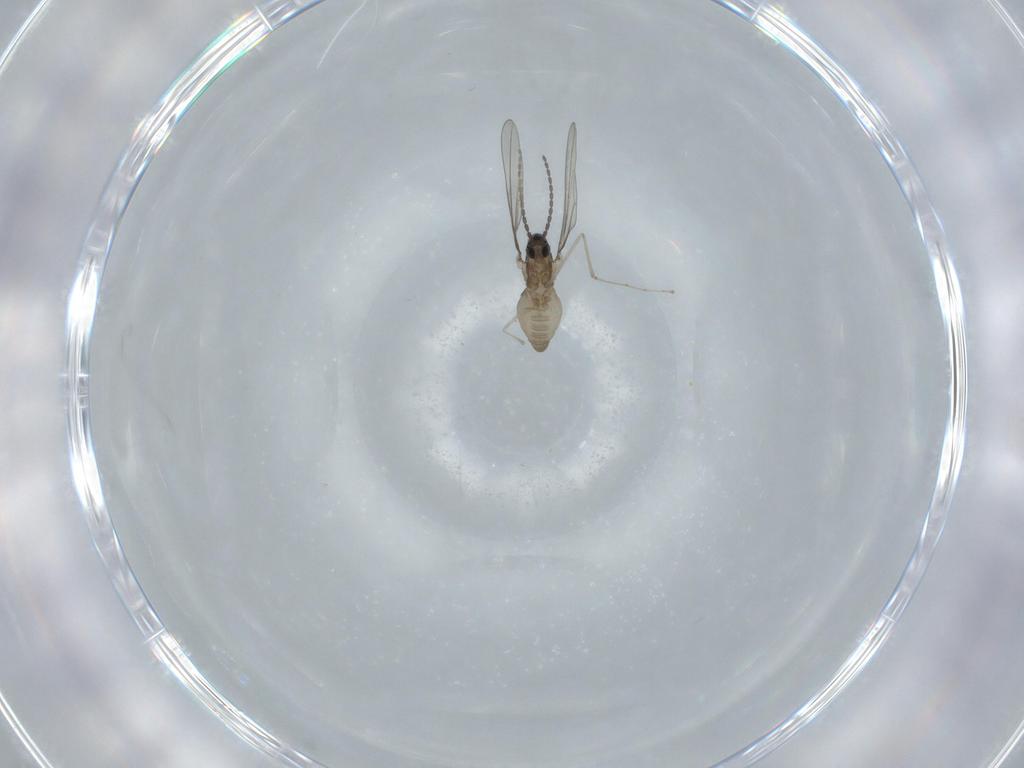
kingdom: Animalia
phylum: Arthropoda
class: Insecta
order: Diptera
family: Cecidomyiidae
